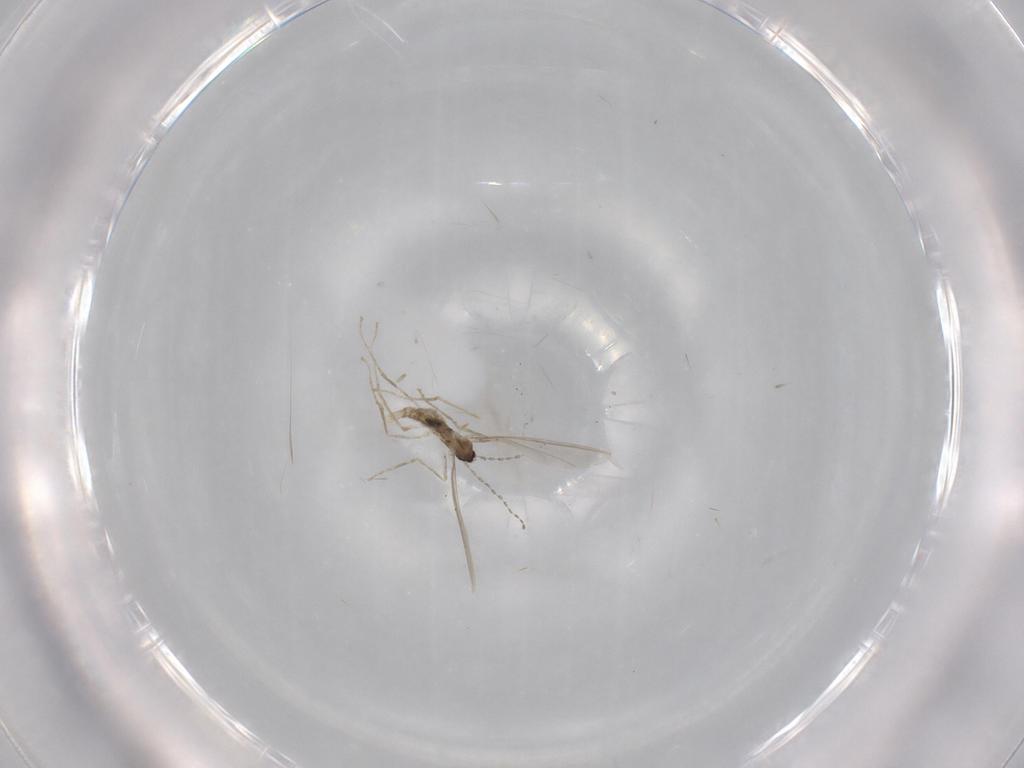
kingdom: Animalia
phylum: Arthropoda
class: Insecta
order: Diptera
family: Cecidomyiidae
